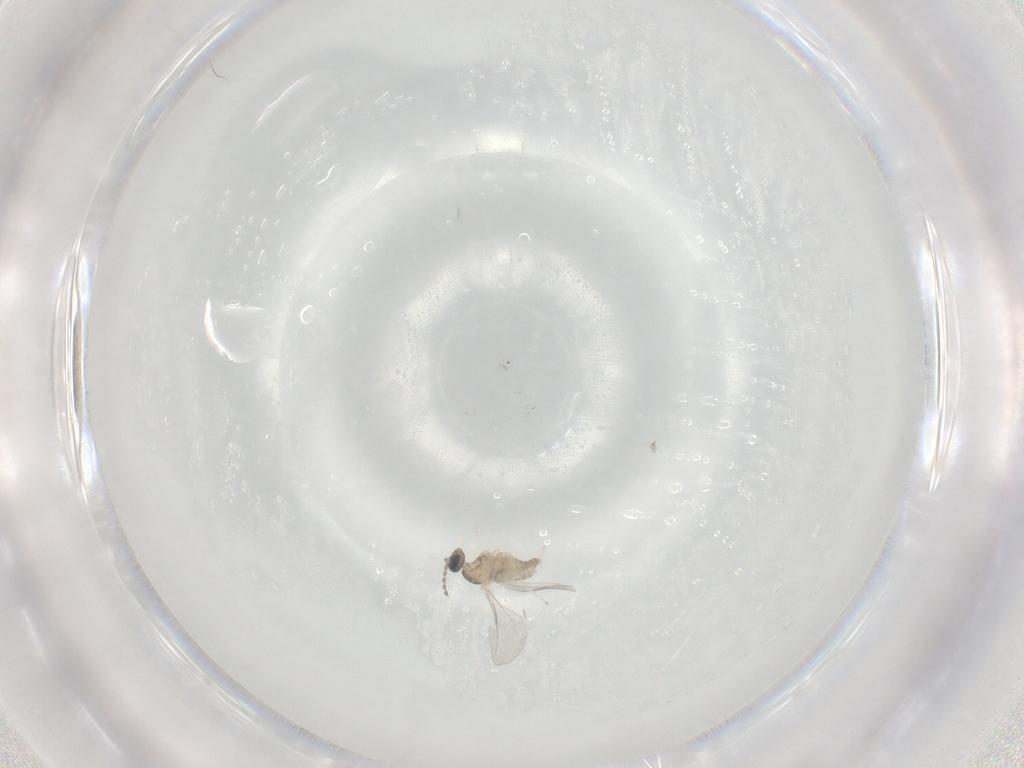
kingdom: Animalia
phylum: Arthropoda
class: Insecta
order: Diptera
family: Cecidomyiidae
